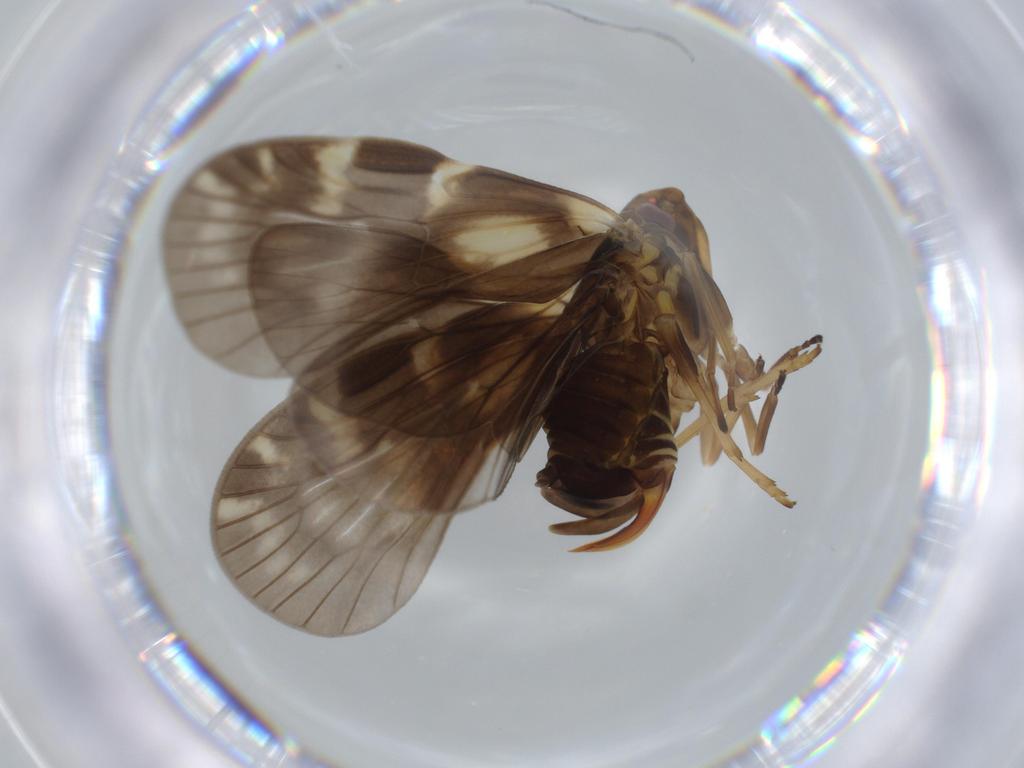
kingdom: Animalia
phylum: Arthropoda
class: Insecta
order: Hemiptera
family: Cixiidae
